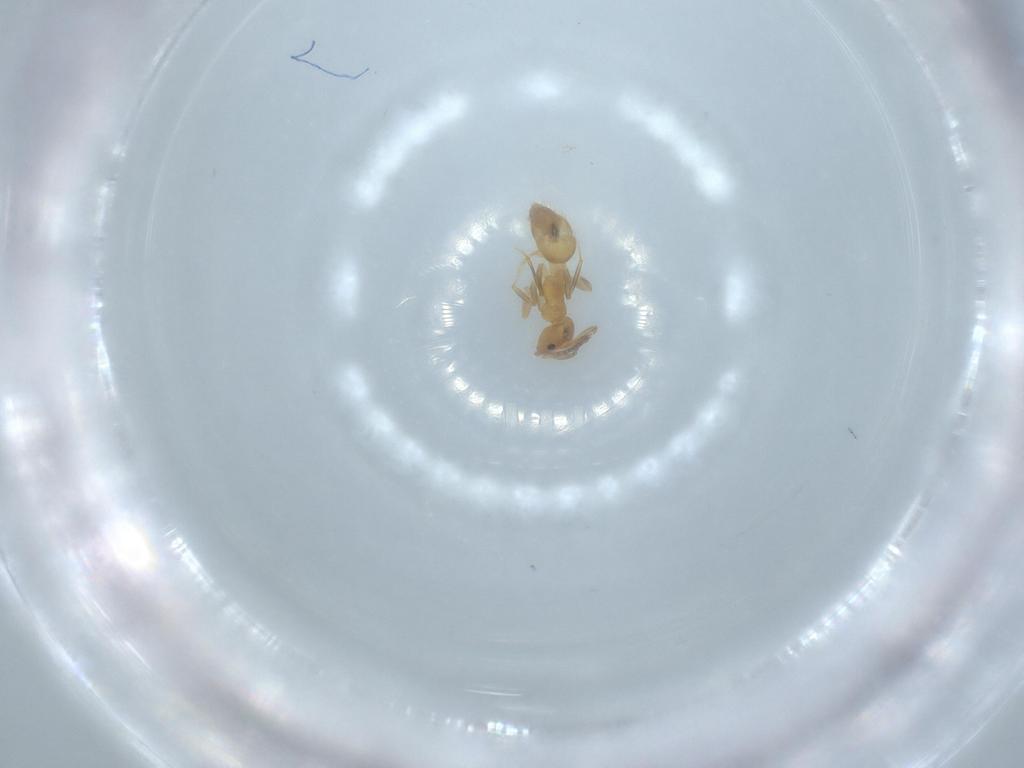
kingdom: Animalia
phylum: Arthropoda
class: Insecta
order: Hymenoptera
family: Formicidae
